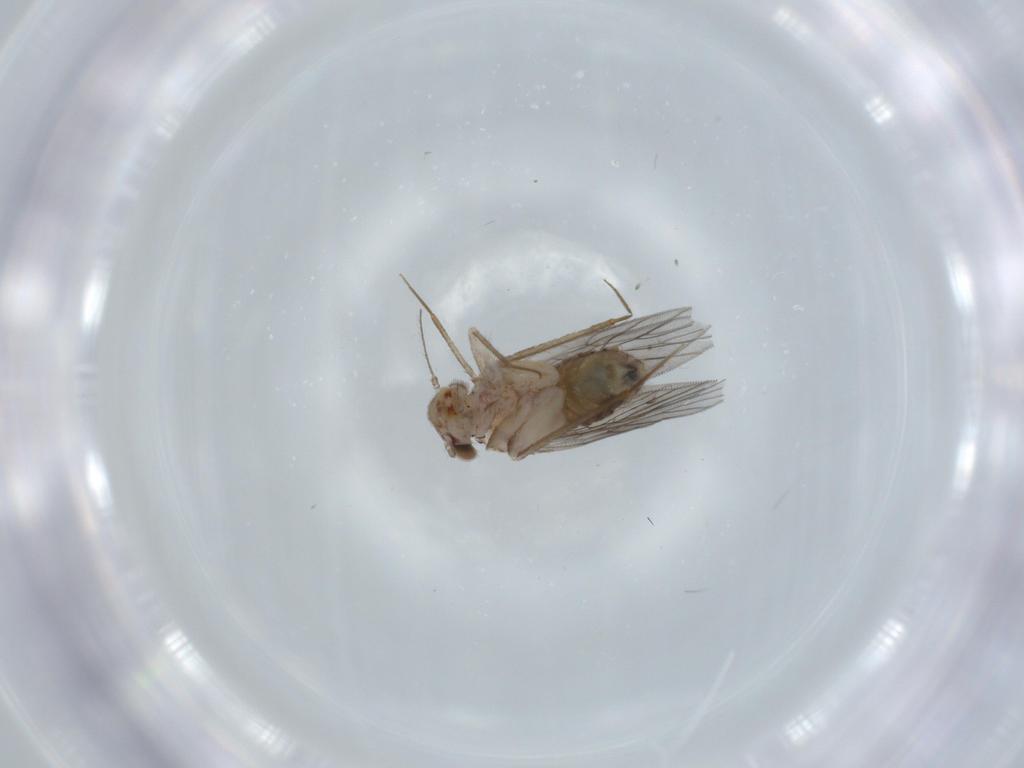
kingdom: Animalia
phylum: Arthropoda
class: Insecta
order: Psocodea
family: Lepidopsocidae
